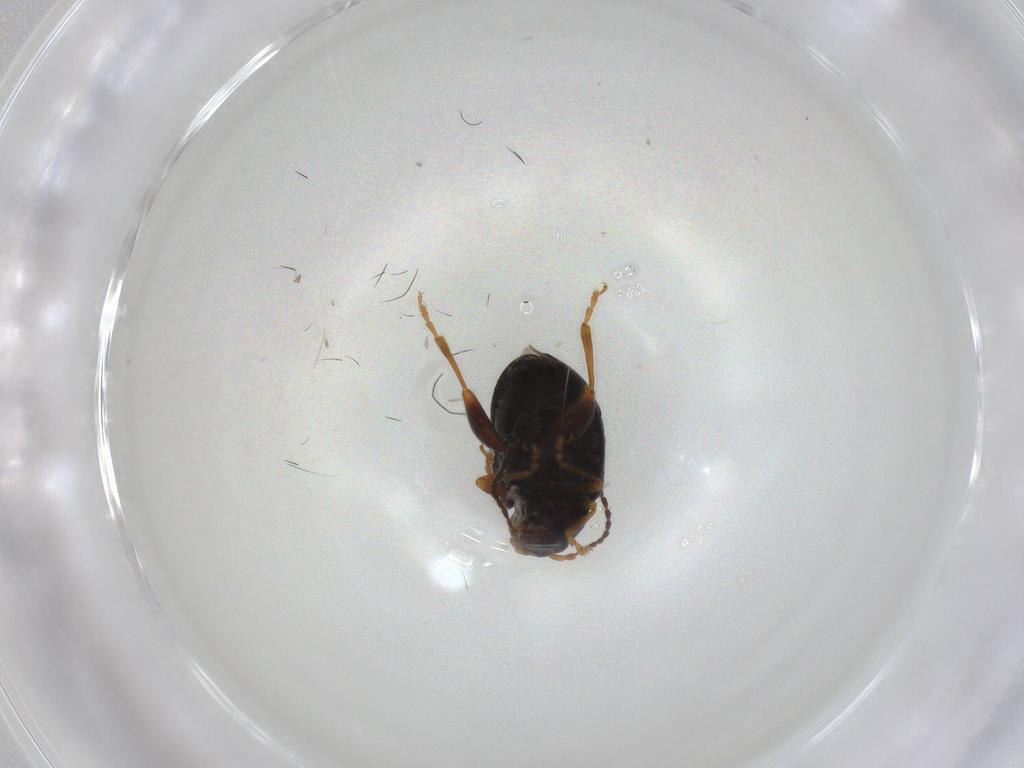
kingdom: Animalia
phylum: Arthropoda
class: Insecta
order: Coleoptera
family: Chrysomelidae
